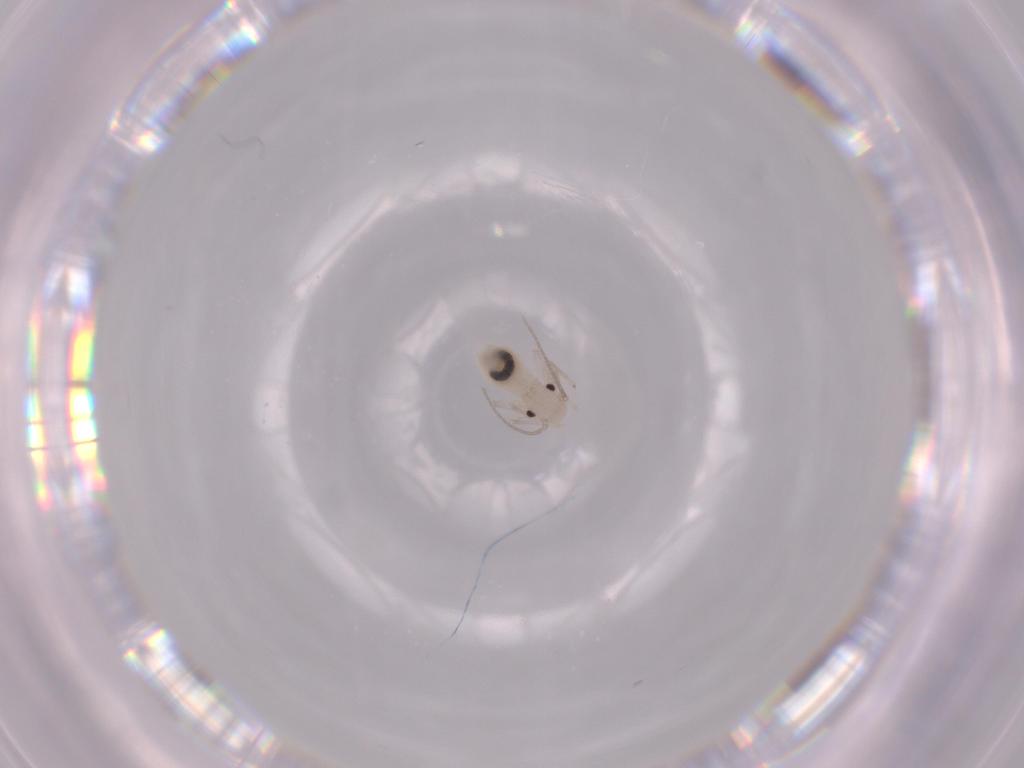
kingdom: Animalia
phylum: Arthropoda
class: Insecta
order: Psocodea
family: Caeciliusidae
